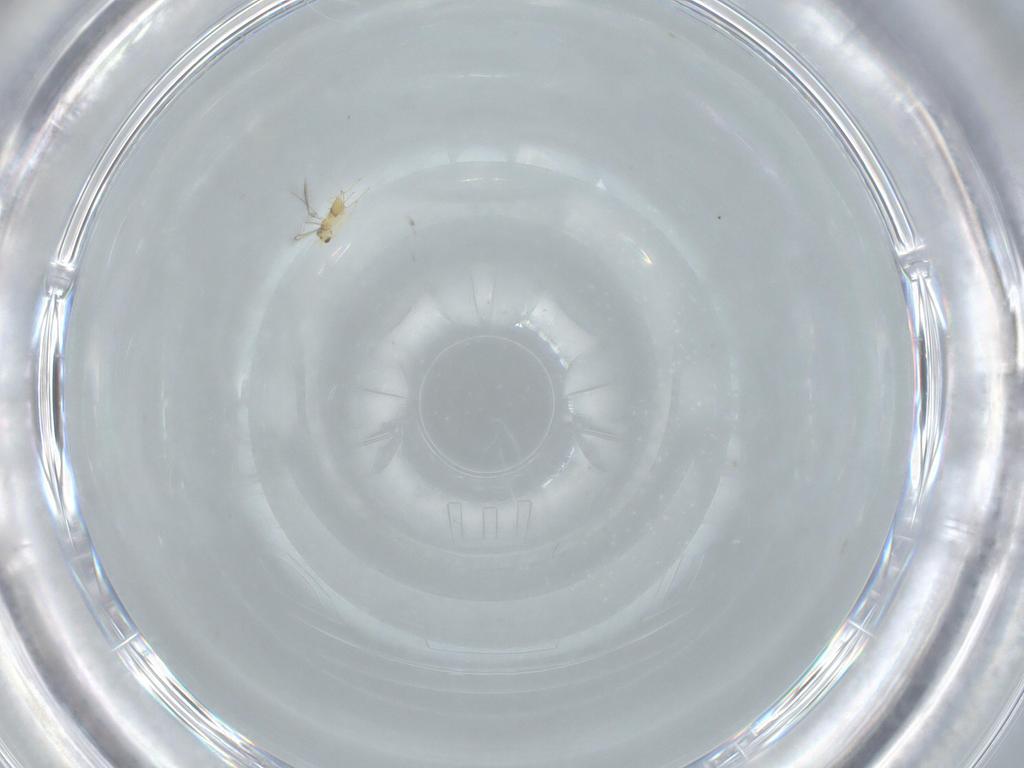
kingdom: Animalia
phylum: Arthropoda
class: Insecta
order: Hymenoptera
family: Mymaridae
